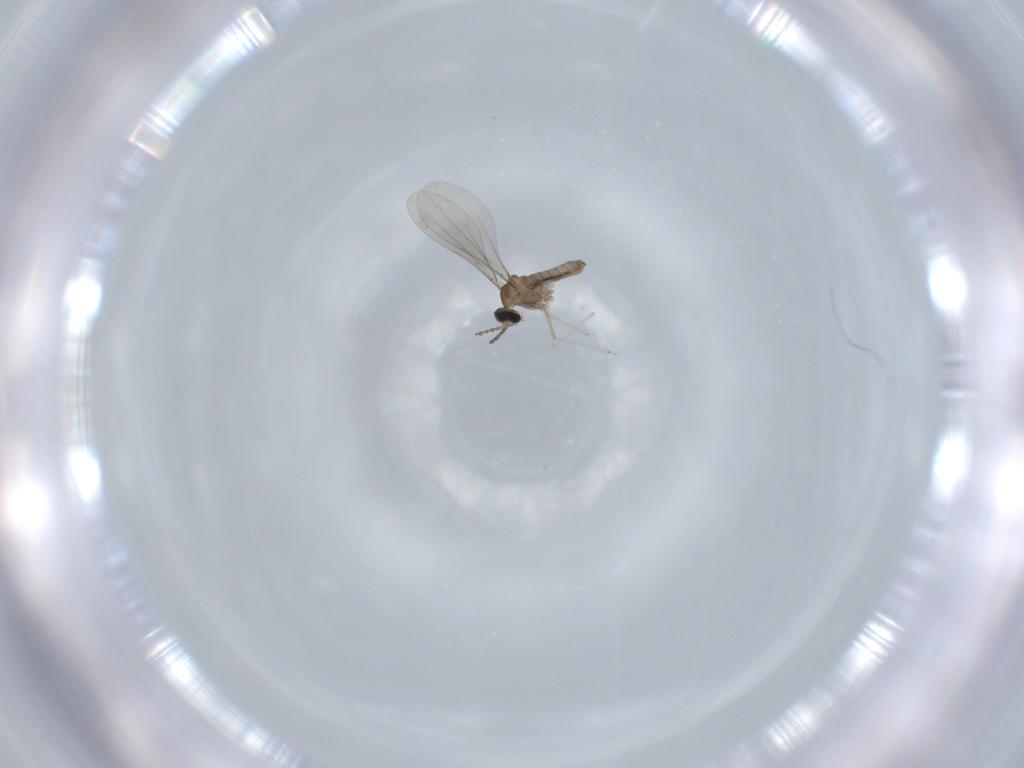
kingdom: Animalia
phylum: Arthropoda
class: Insecta
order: Diptera
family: Cecidomyiidae
